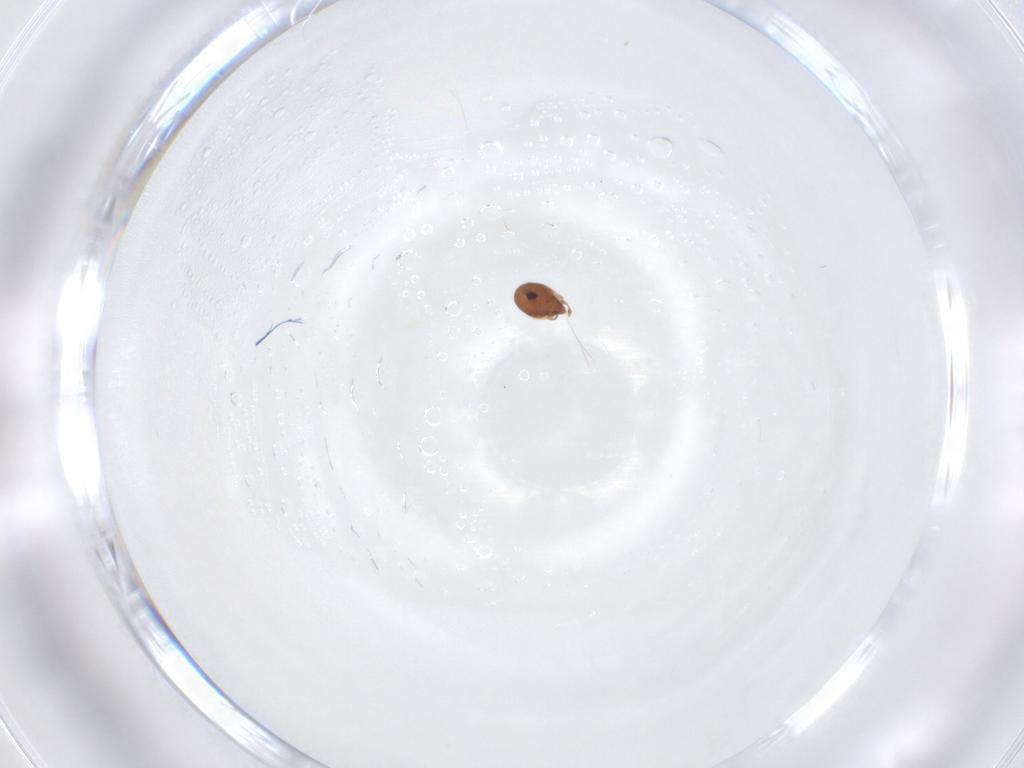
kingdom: Animalia
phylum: Arthropoda
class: Arachnida
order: Sarcoptiformes
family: Scheloribatidae
